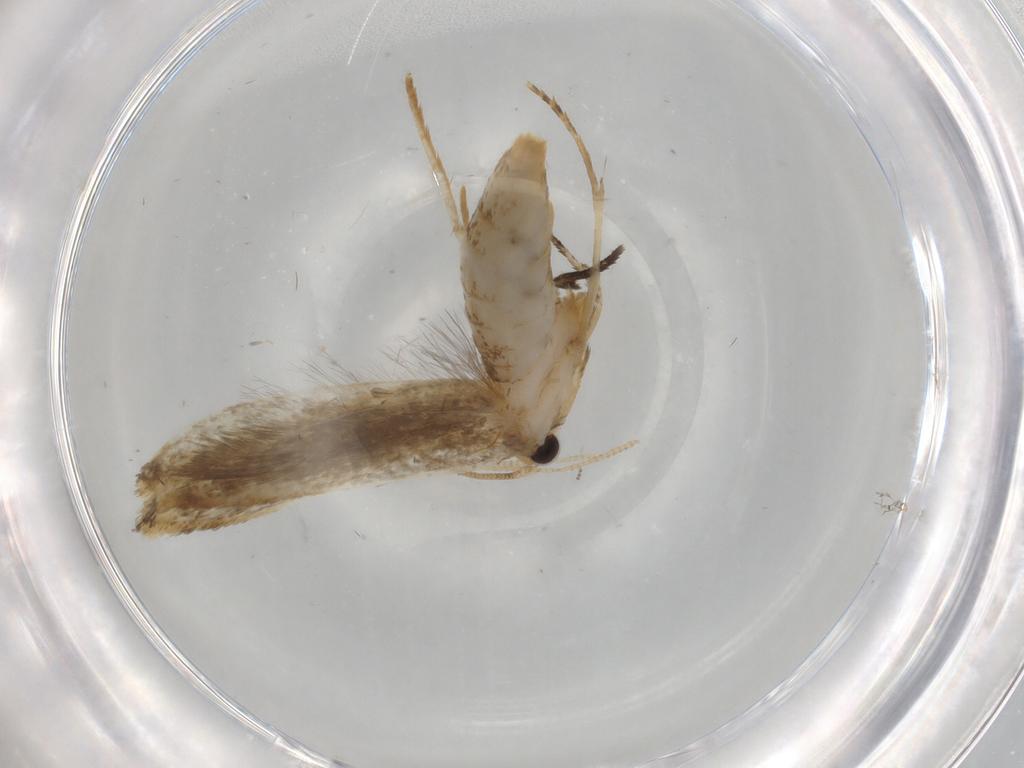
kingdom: Animalia
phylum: Arthropoda
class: Insecta
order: Lepidoptera
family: Tineidae
